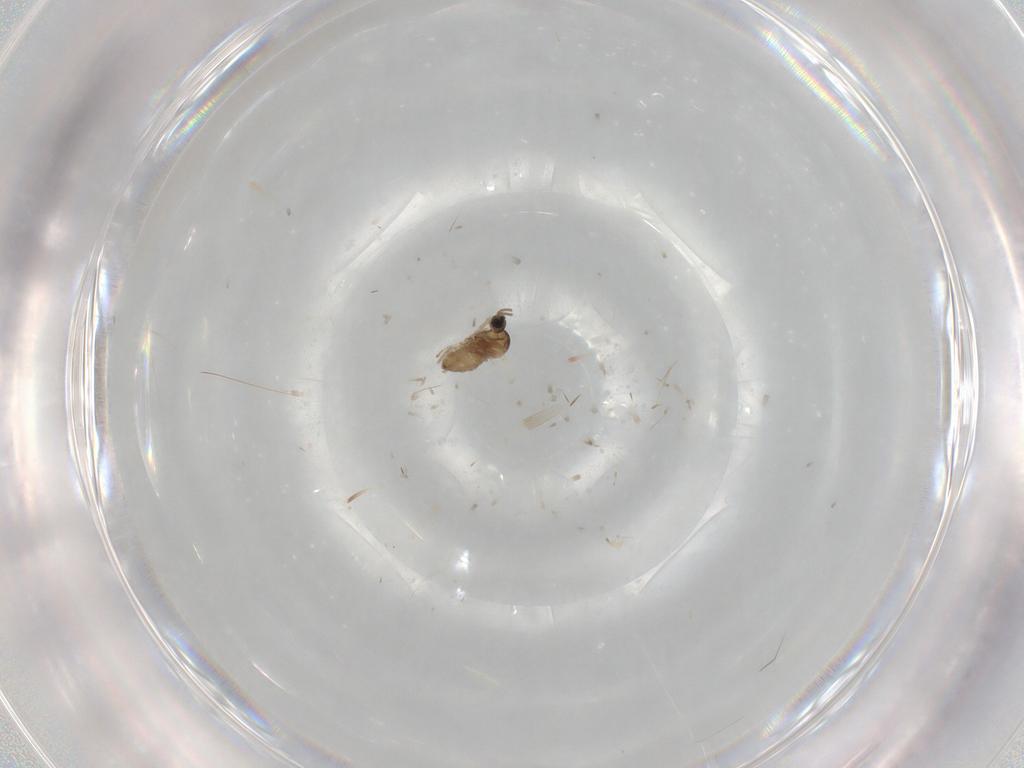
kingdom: Animalia
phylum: Arthropoda
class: Insecta
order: Diptera
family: Cecidomyiidae
